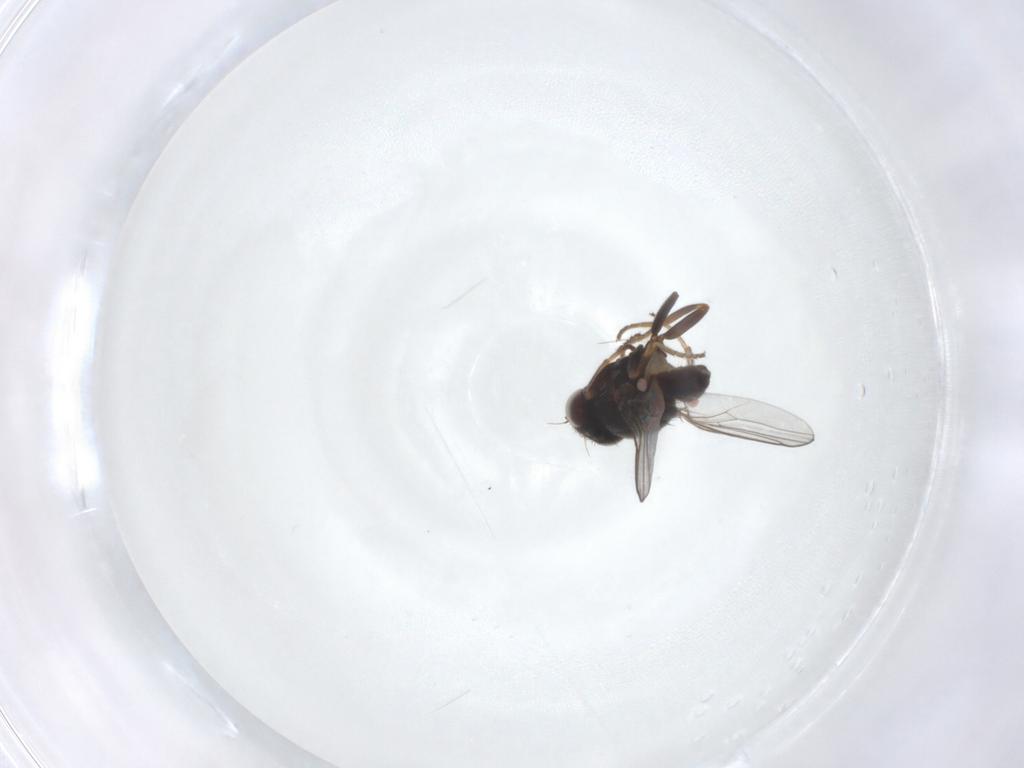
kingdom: Animalia
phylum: Arthropoda
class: Insecta
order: Diptera
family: Chloropidae
